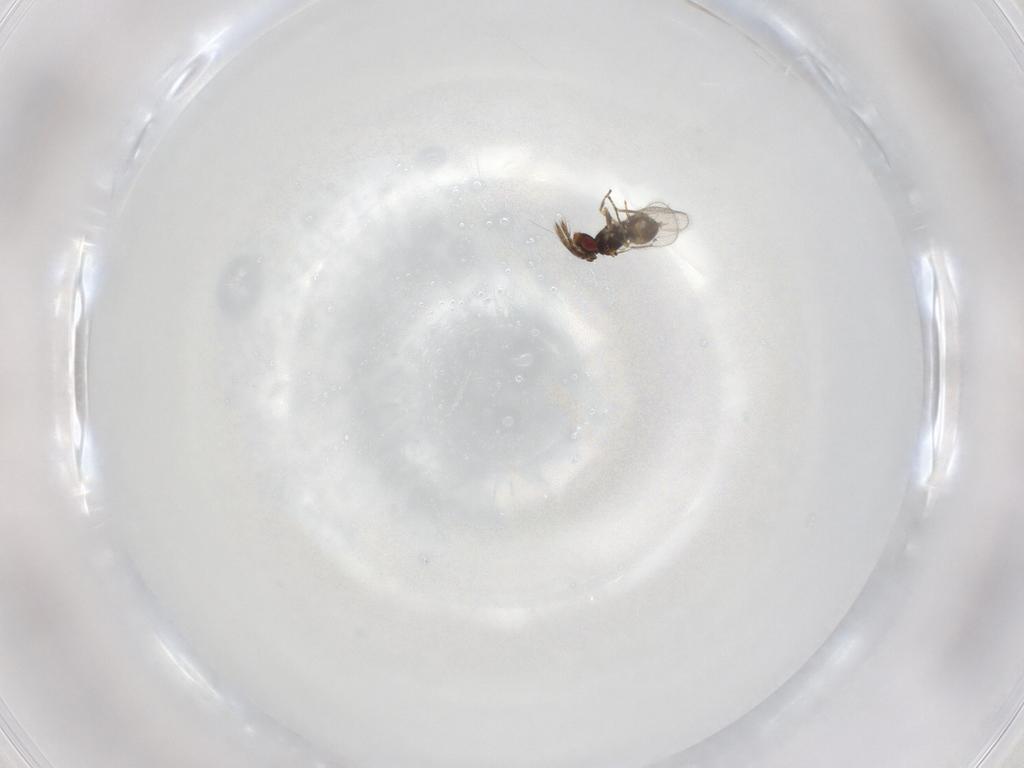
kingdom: Animalia
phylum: Arthropoda
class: Insecta
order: Hymenoptera
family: Eulophidae
